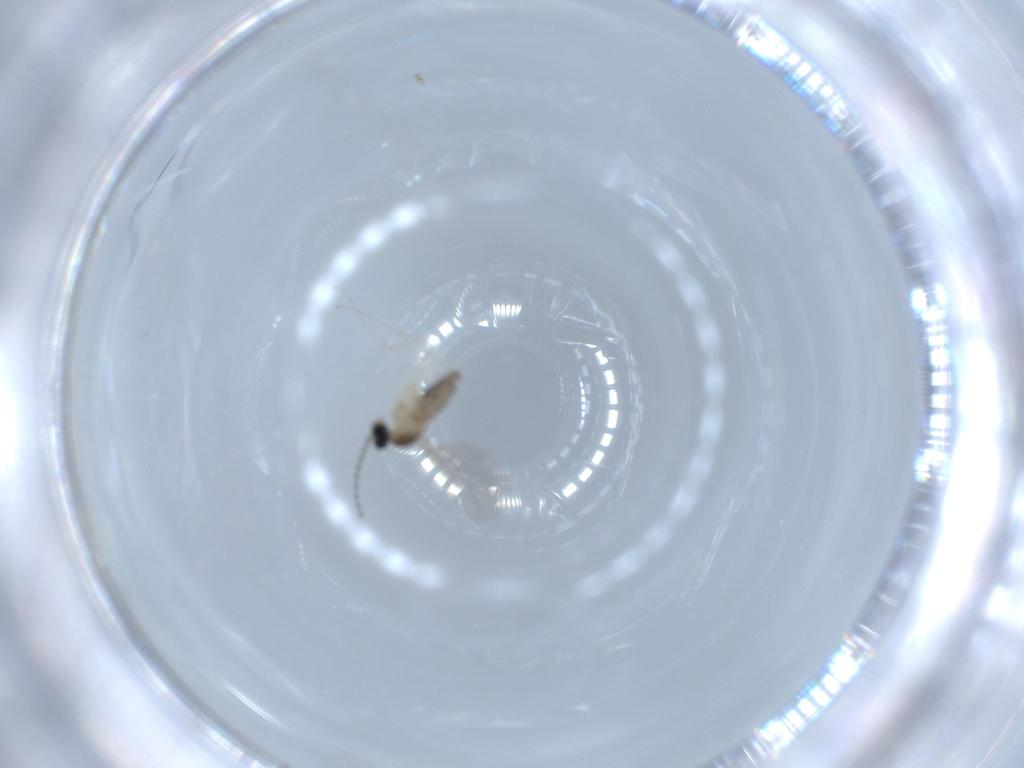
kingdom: Animalia
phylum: Arthropoda
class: Insecta
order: Diptera
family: Cecidomyiidae
